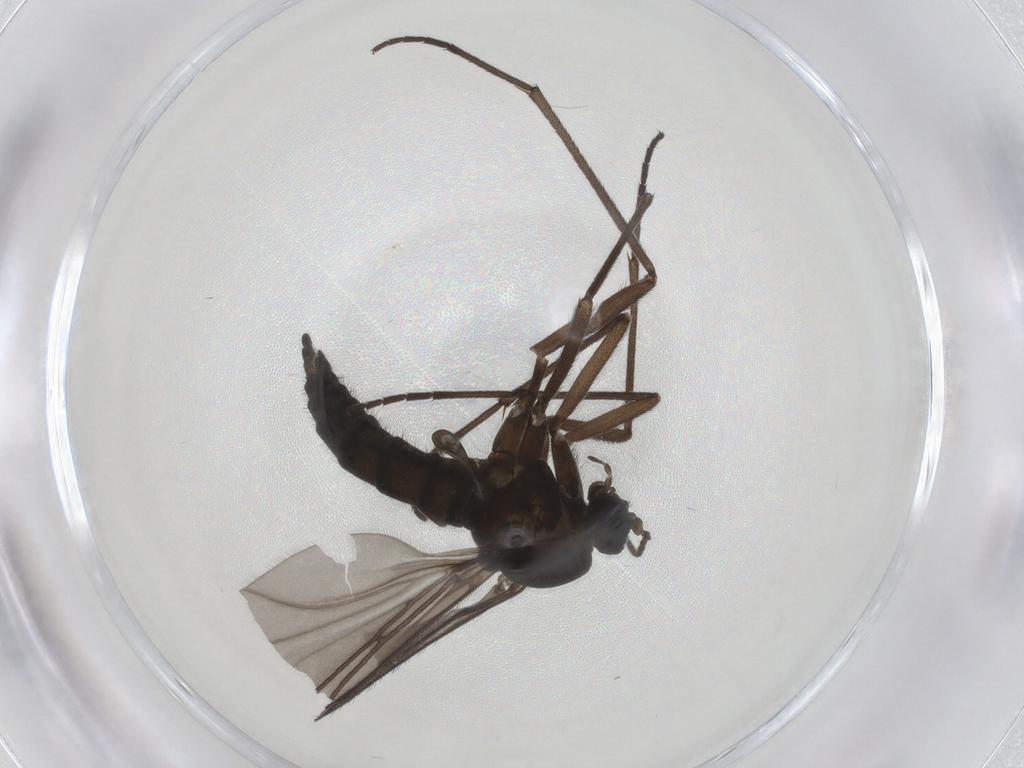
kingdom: Animalia
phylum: Arthropoda
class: Insecta
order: Diptera
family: Sciaridae
